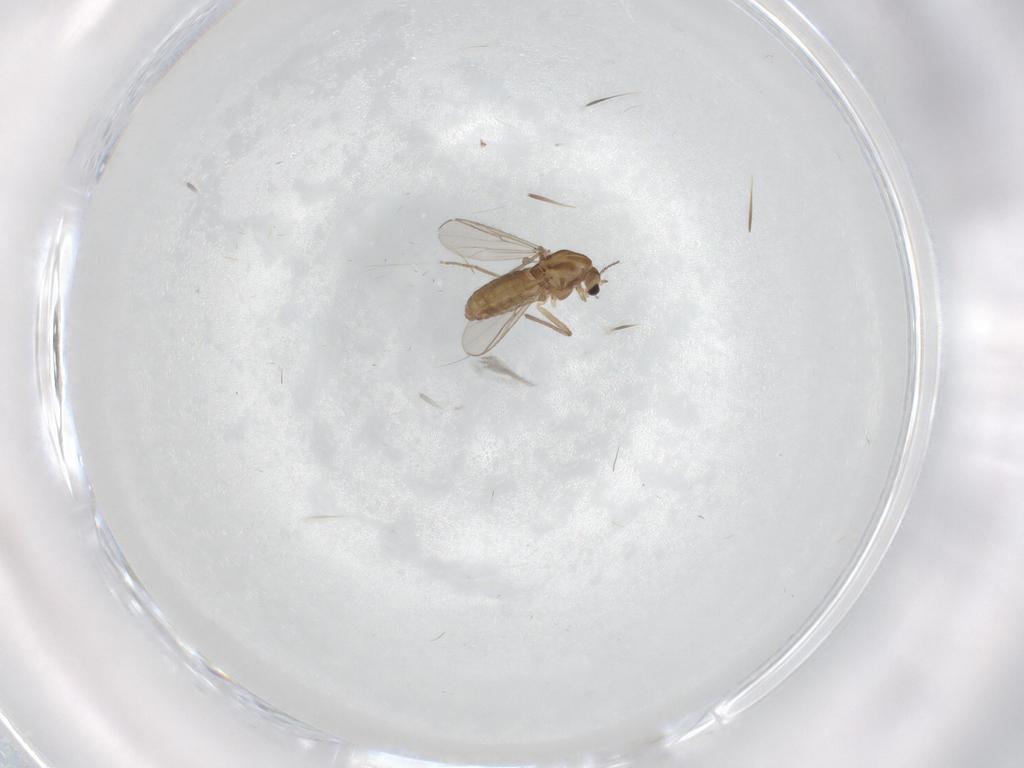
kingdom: Animalia
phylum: Arthropoda
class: Insecta
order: Diptera
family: Chironomidae
